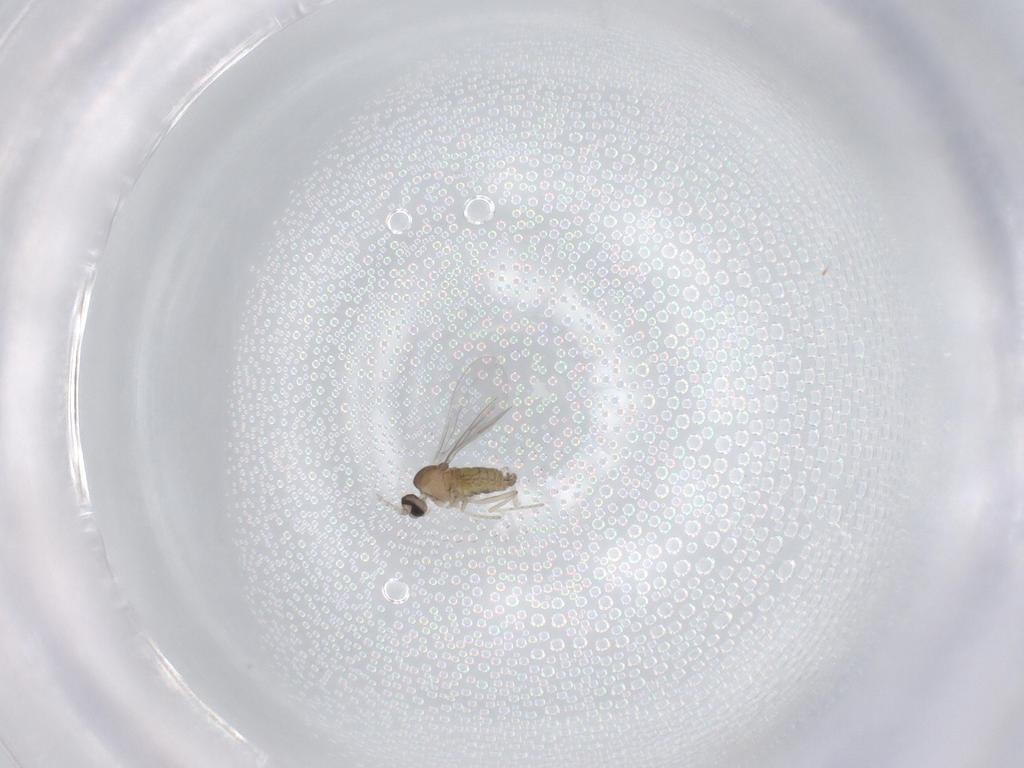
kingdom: Animalia
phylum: Arthropoda
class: Insecta
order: Diptera
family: Cecidomyiidae
